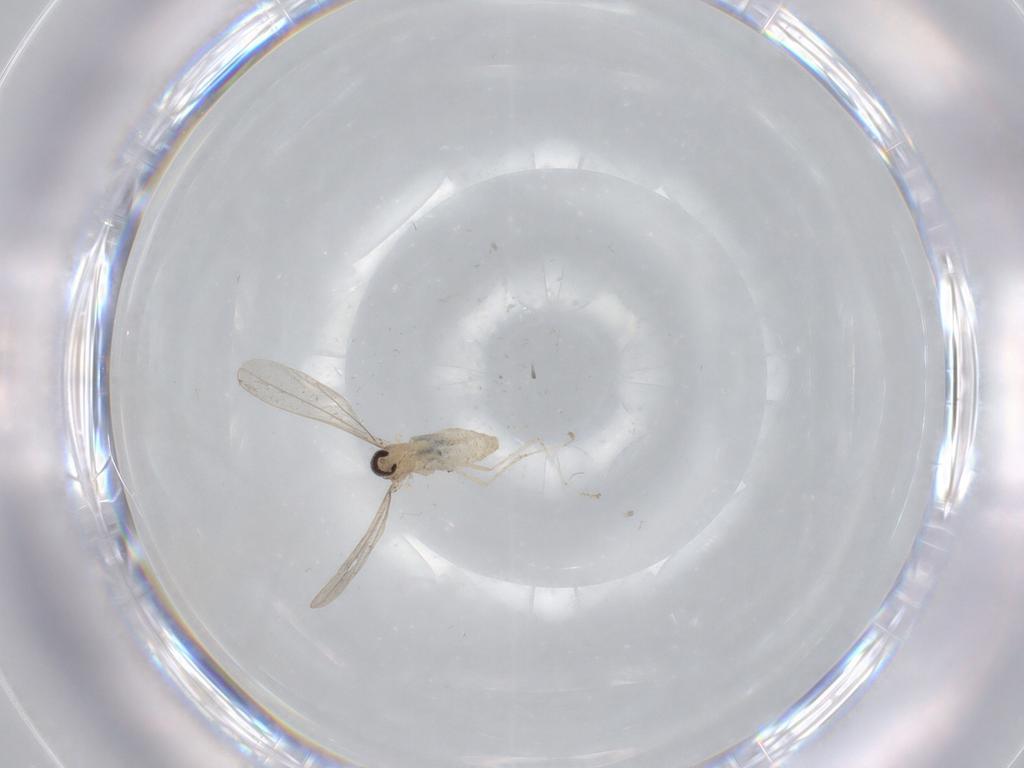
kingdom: Animalia
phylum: Arthropoda
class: Insecta
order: Diptera
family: Cecidomyiidae
